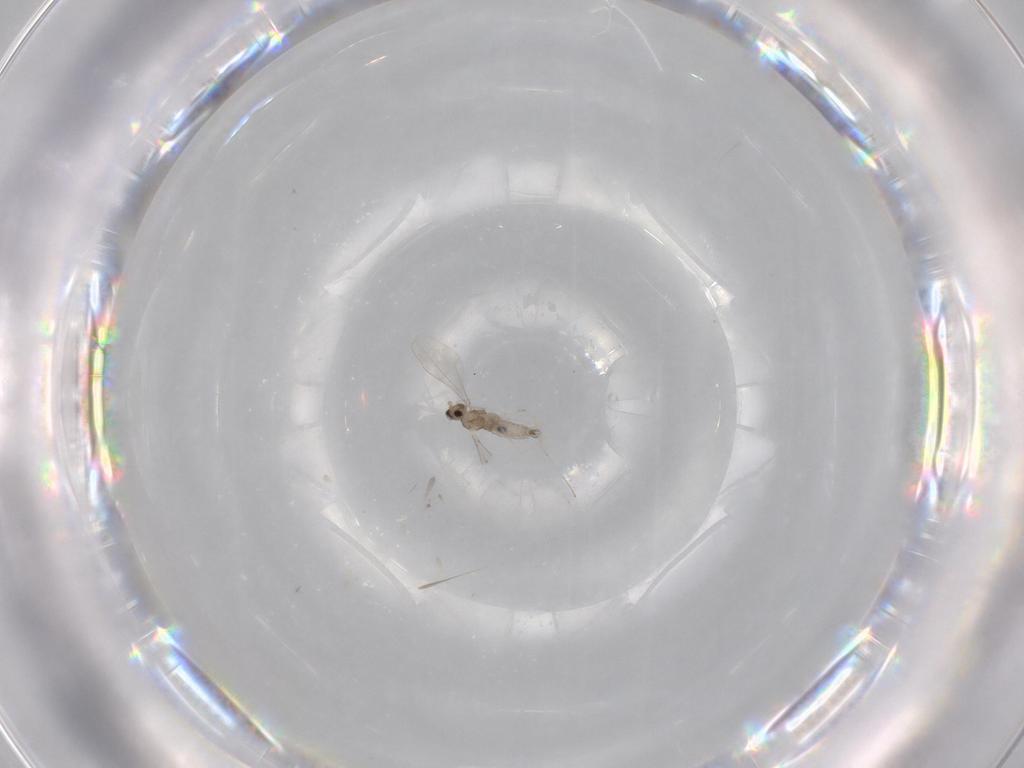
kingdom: Animalia
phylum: Arthropoda
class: Insecta
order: Diptera
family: Cecidomyiidae
